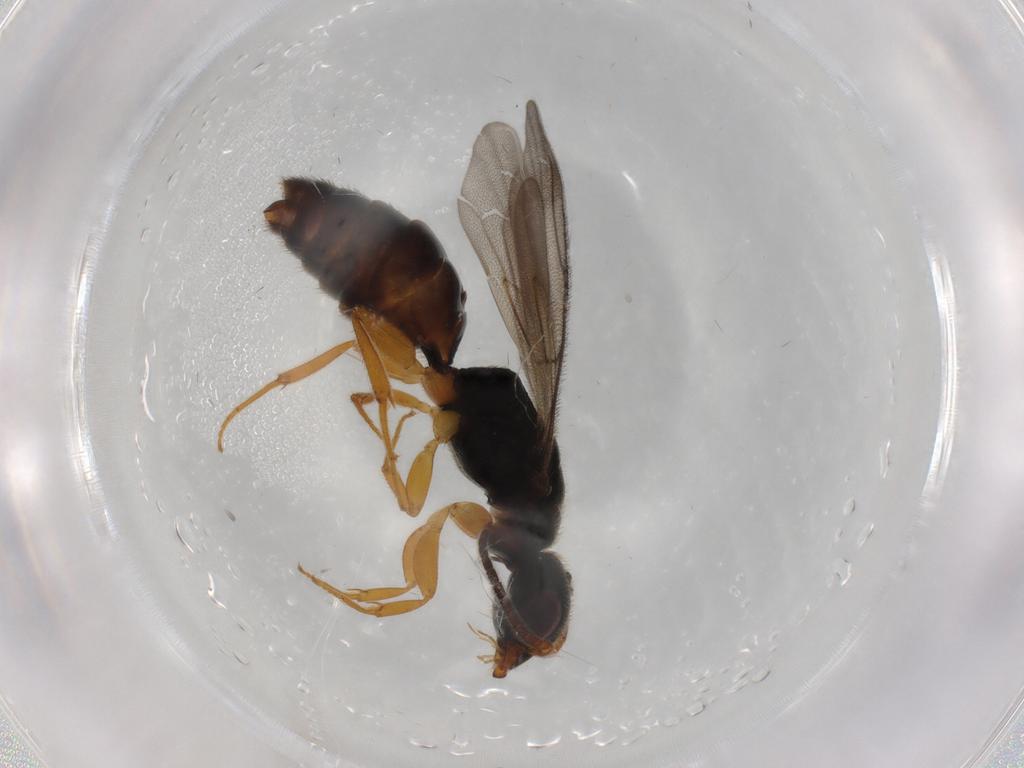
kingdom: Animalia
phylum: Arthropoda
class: Insecta
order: Hymenoptera
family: Bethylidae
